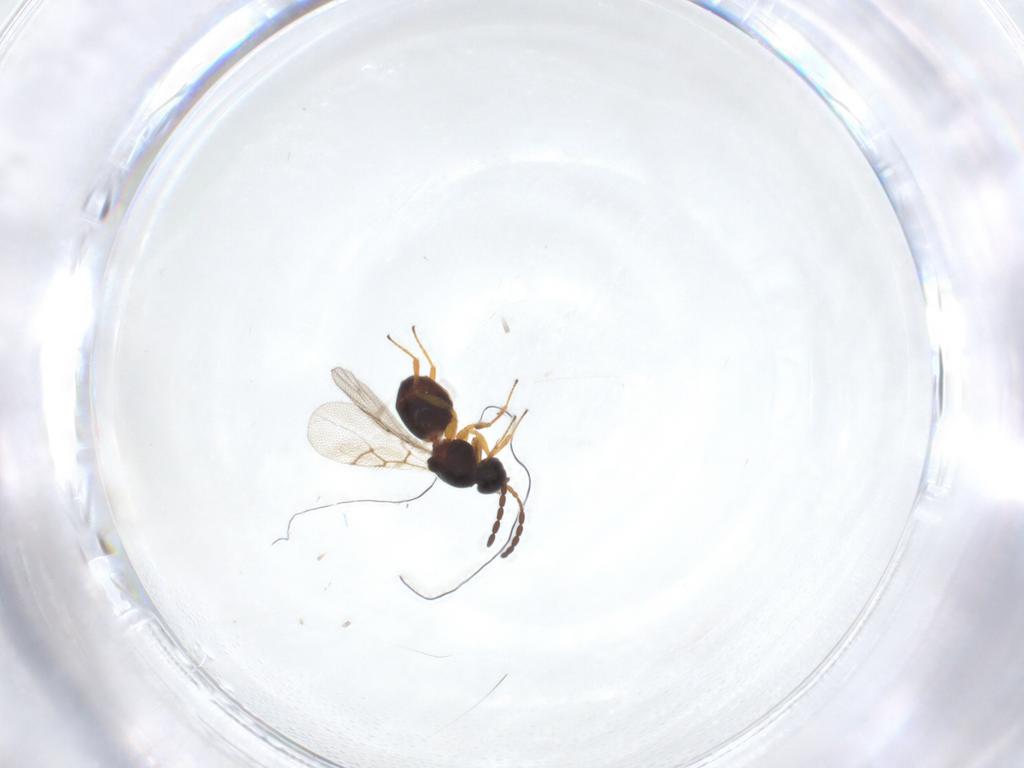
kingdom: Animalia
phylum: Arthropoda
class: Insecta
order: Hymenoptera
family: Figitidae
